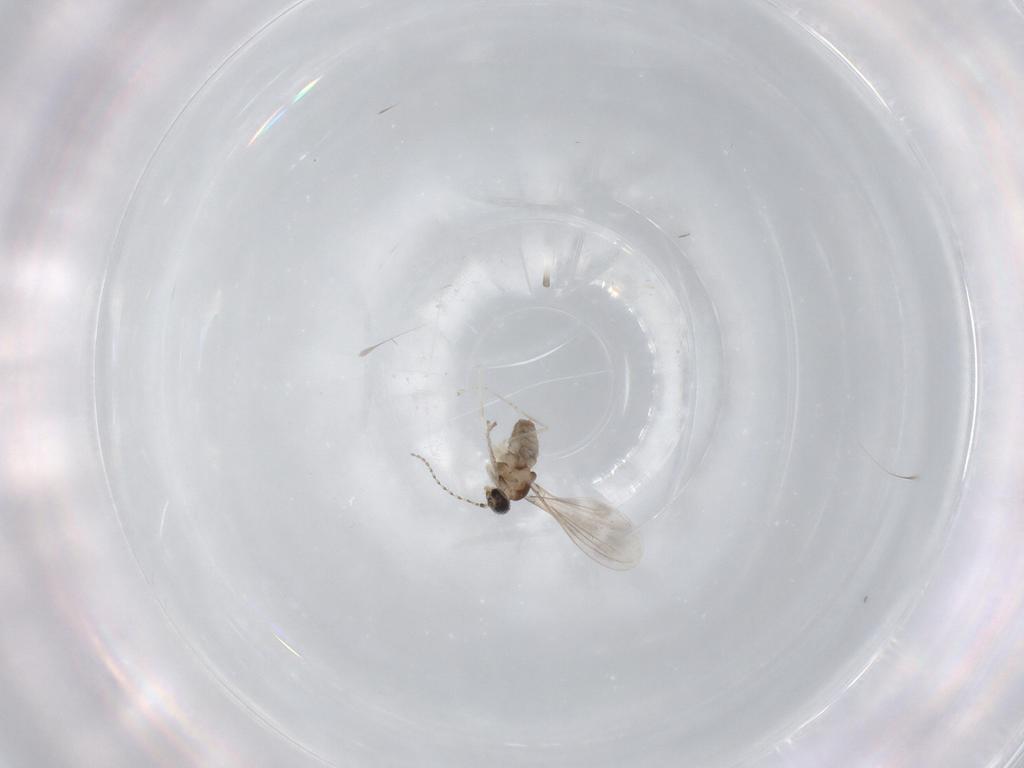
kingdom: Animalia
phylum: Arthropoda
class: Insecta
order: Diptera
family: Cecidomyiidae
